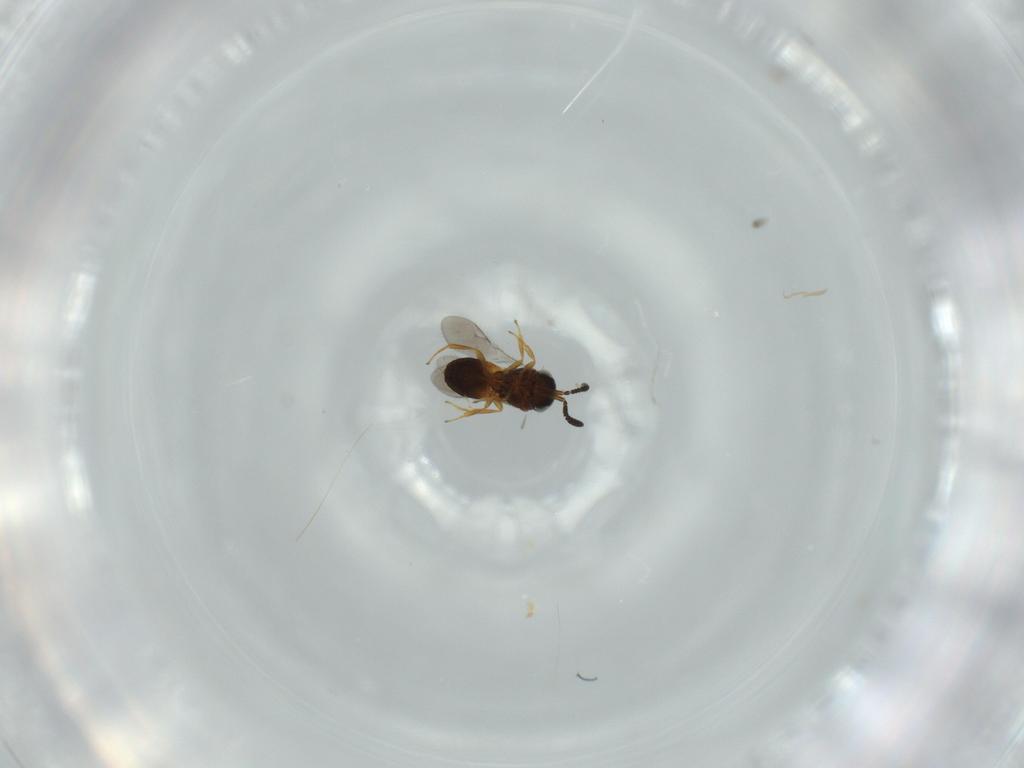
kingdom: Animalia
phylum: Arthropoda
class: Insecta
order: Hymenoptera
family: Scelionidae
